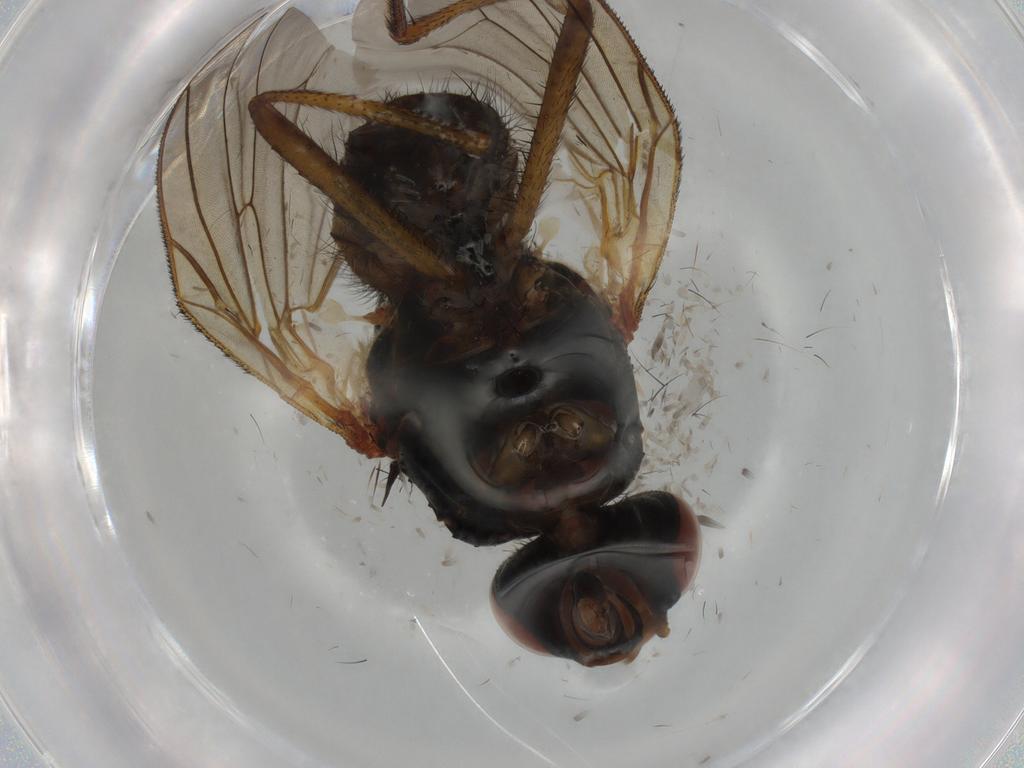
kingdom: Animalia
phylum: Arthropoda
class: Insecta
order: Diptera
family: Anthomyiidae
